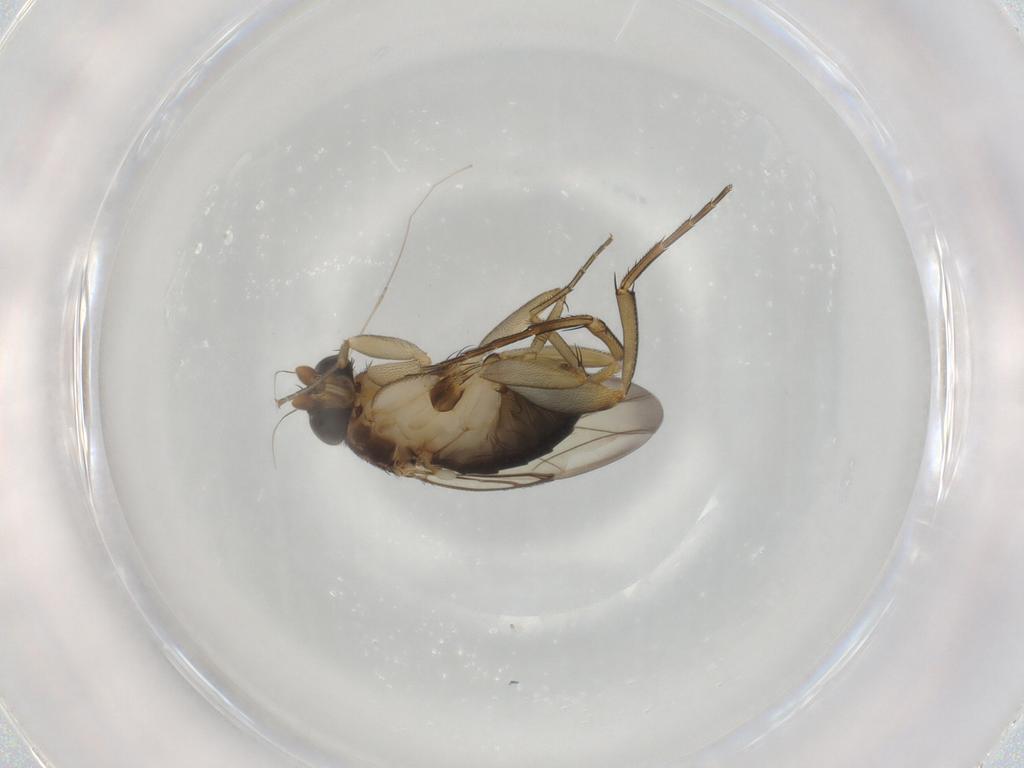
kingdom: Animalia
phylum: Arthropoda
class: Insecta
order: Diptera
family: Phoridae
